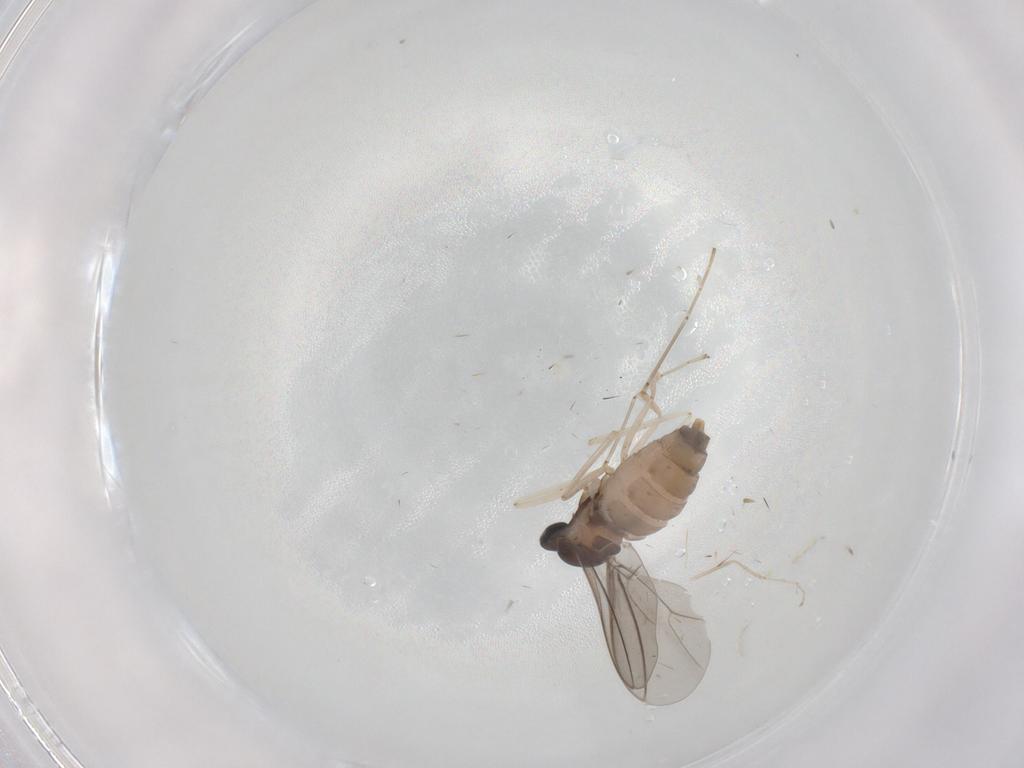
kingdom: Animalia
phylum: Arthropoda
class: Insecta
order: Diptera
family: Cecidomyiidae
